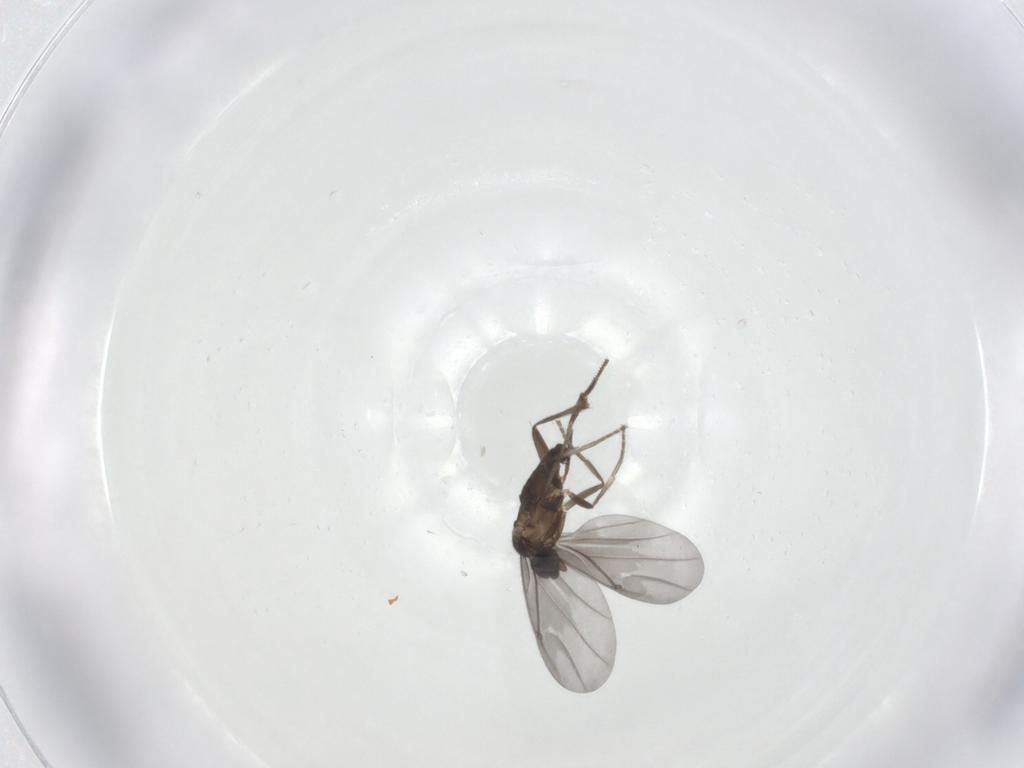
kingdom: Animalia
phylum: Arthropoda
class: Insecta
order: Diptera
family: Phoridae
